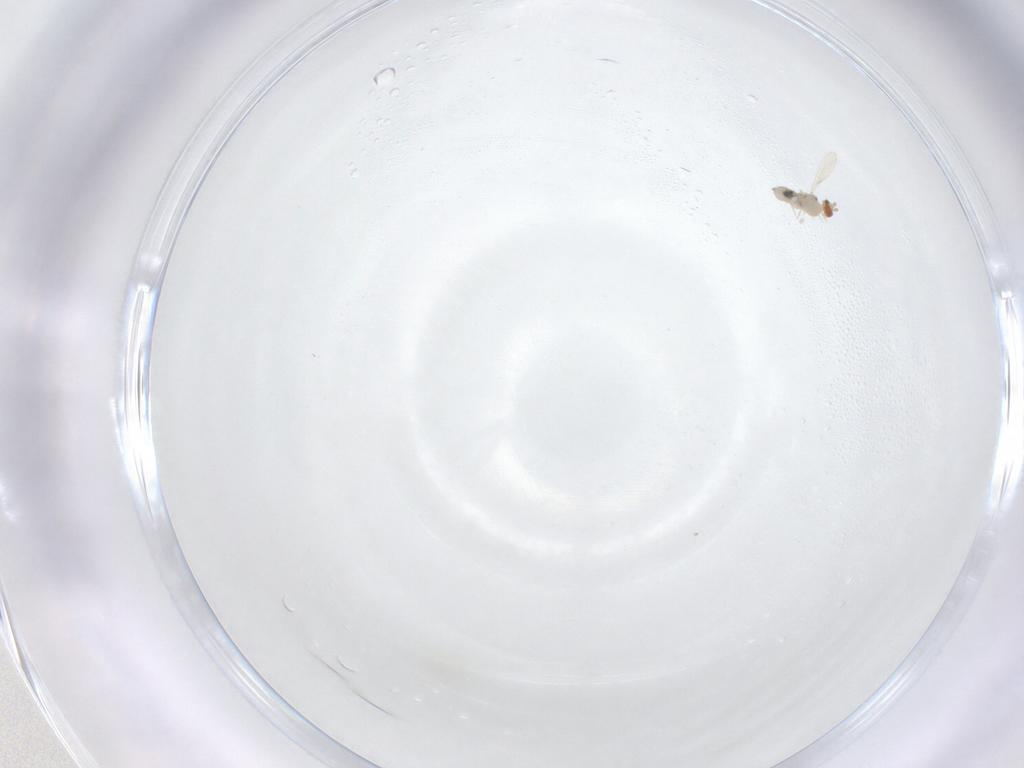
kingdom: Animalia
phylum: Arthropoda
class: Insecta
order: Diptera
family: Cecidomyiidae
